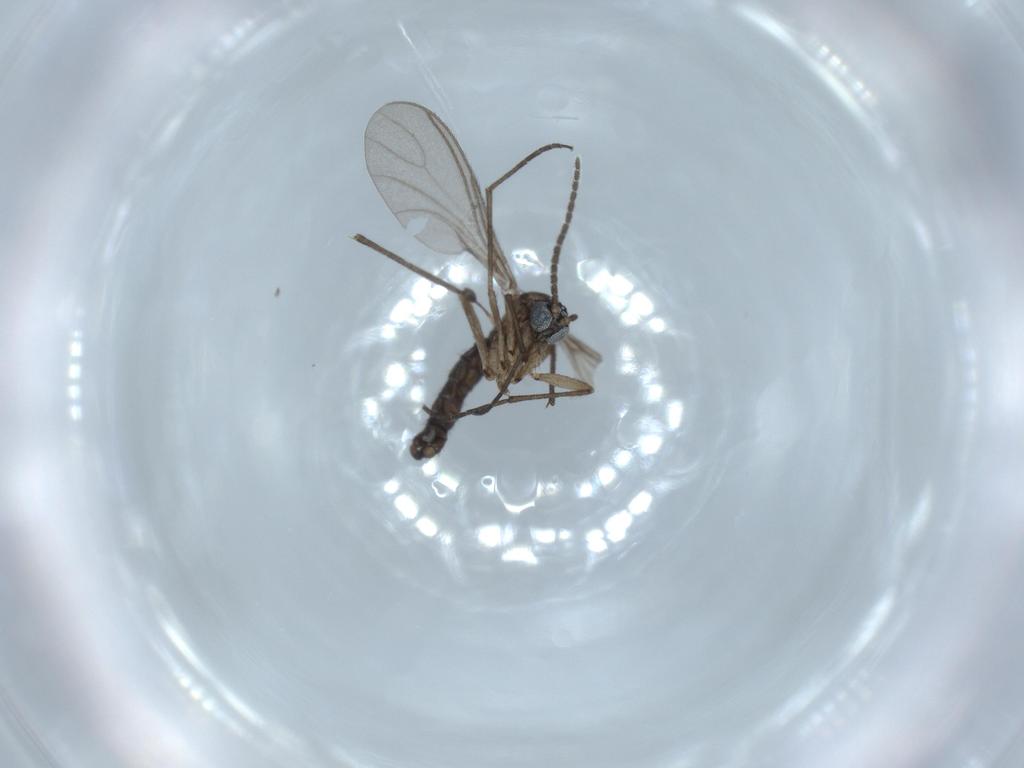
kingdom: Animalia
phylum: Arthropoda
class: Insecta
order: Diptera
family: Sciaridae
